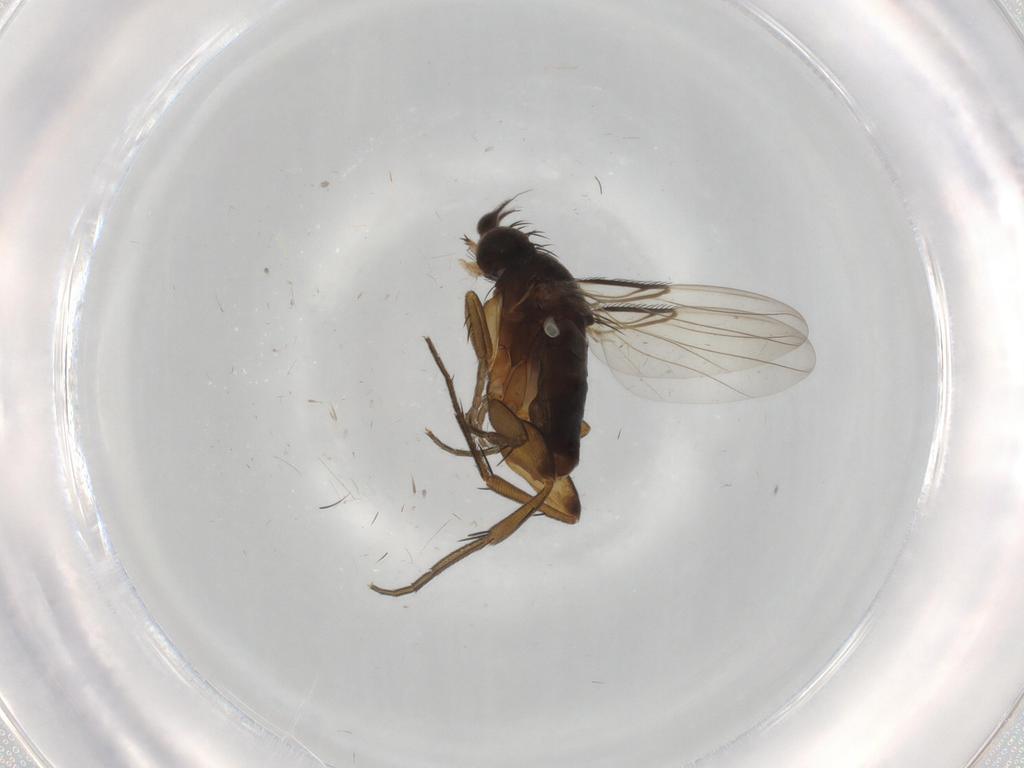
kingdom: Animalia
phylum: Arthropoda
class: Insecta
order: Diptera
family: Phoridae
